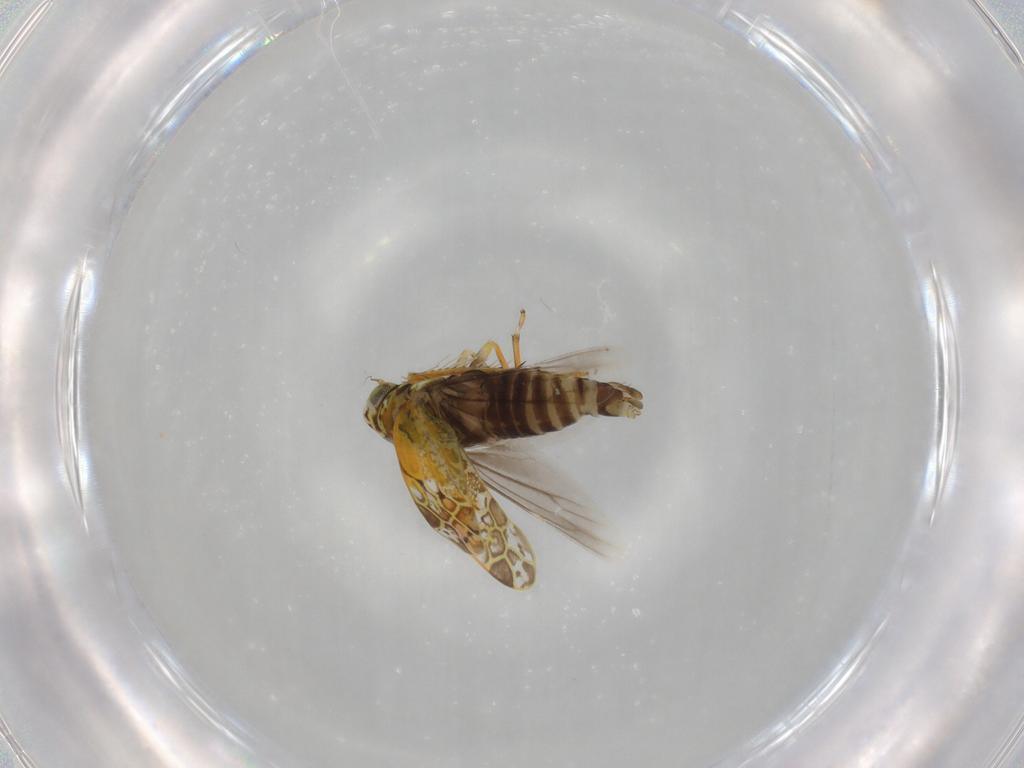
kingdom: Animalia
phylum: Arthropoda
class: Insecta
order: Hemiptera
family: Cicadellidae
